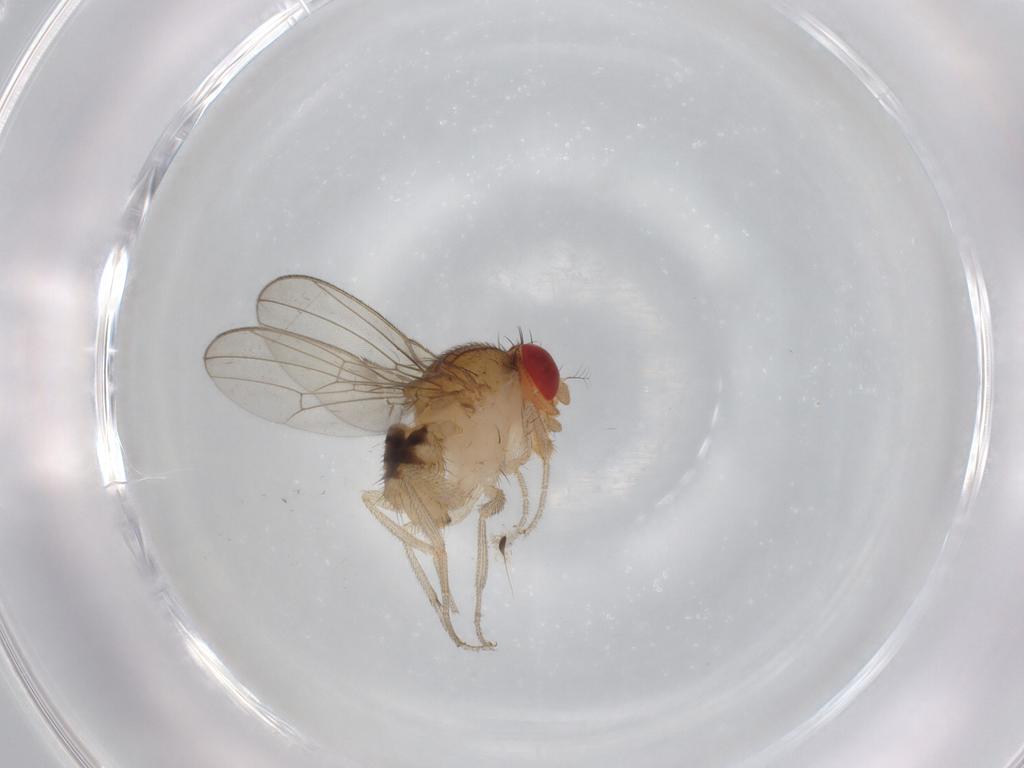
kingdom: Animalia
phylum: Arthropoda
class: Insecta
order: Diptera
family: Drosophilidae
